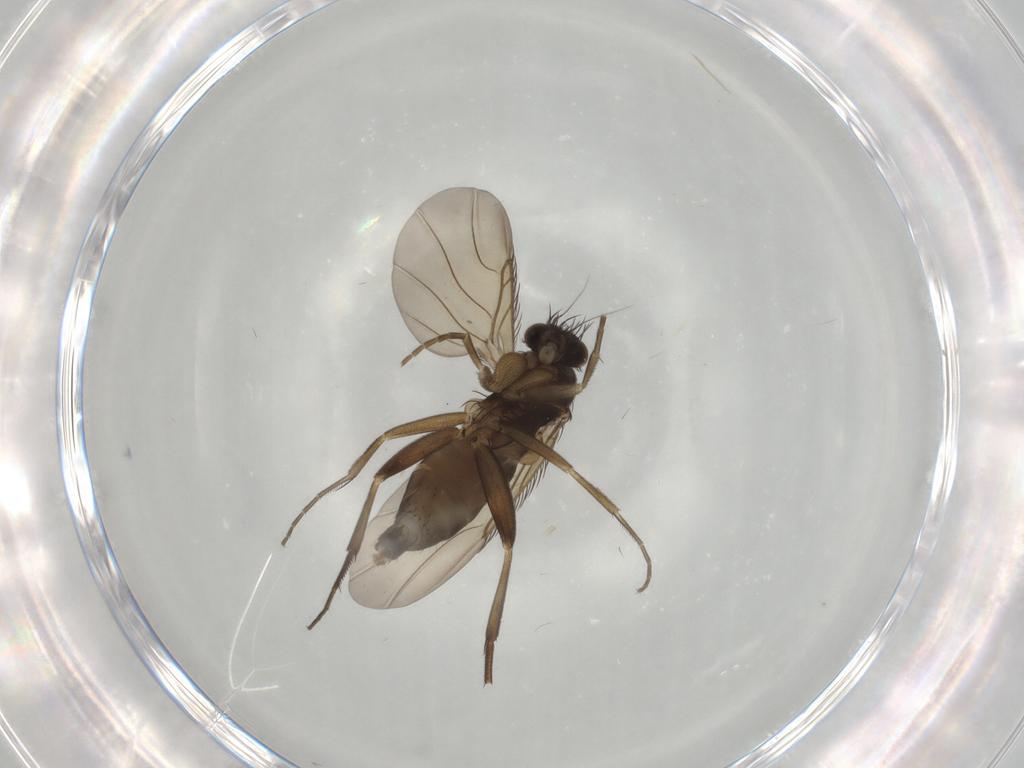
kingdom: Animalia
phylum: Arthropoda
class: Insecta
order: Diptera
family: Phoridae
